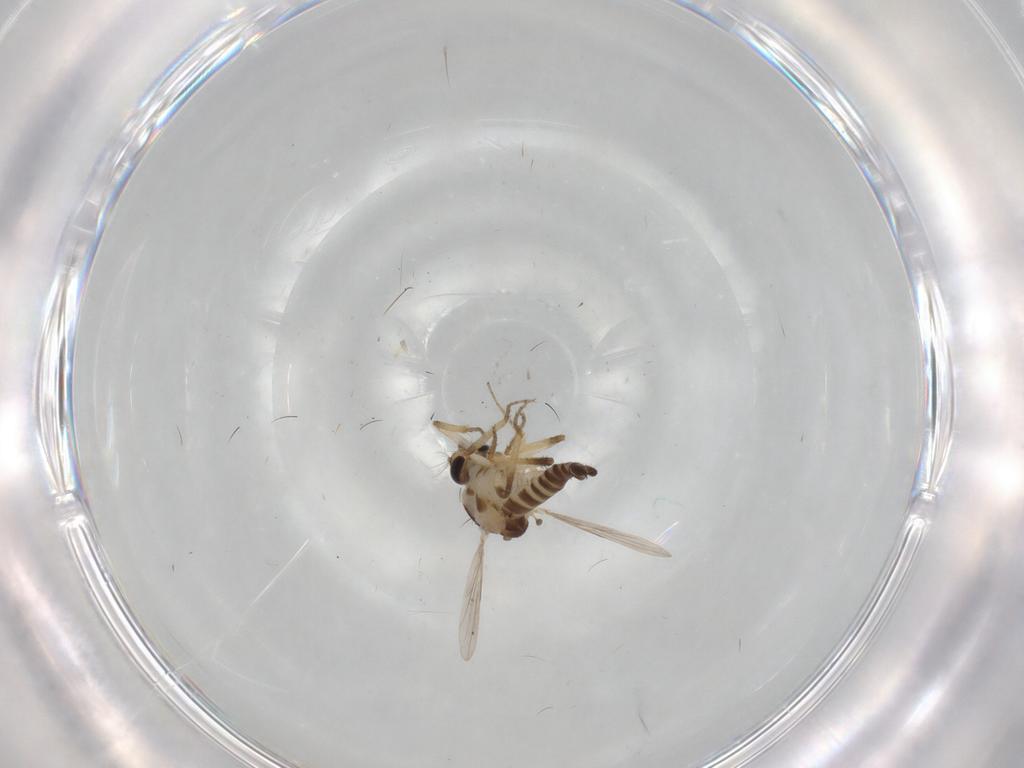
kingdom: Animalia
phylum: Arthropoda
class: Insecta
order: Diptera
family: Ceratopogonidae
